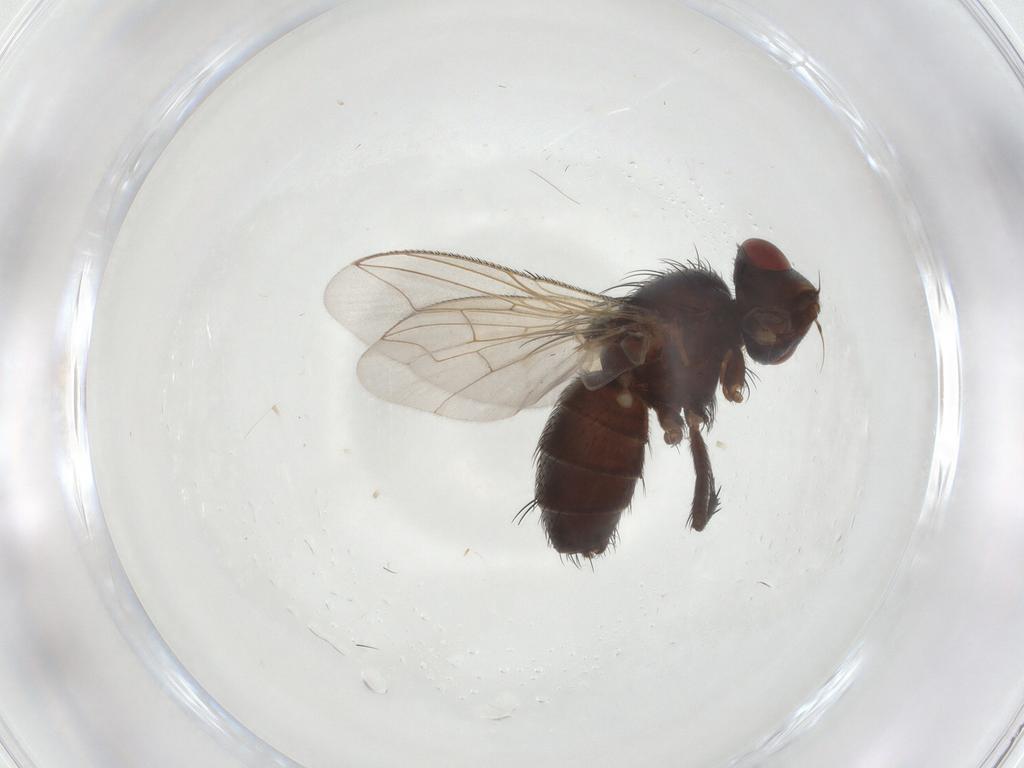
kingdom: Animalia
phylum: Arthropoda
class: Insecta
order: Diptera
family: Sarcophagidae
